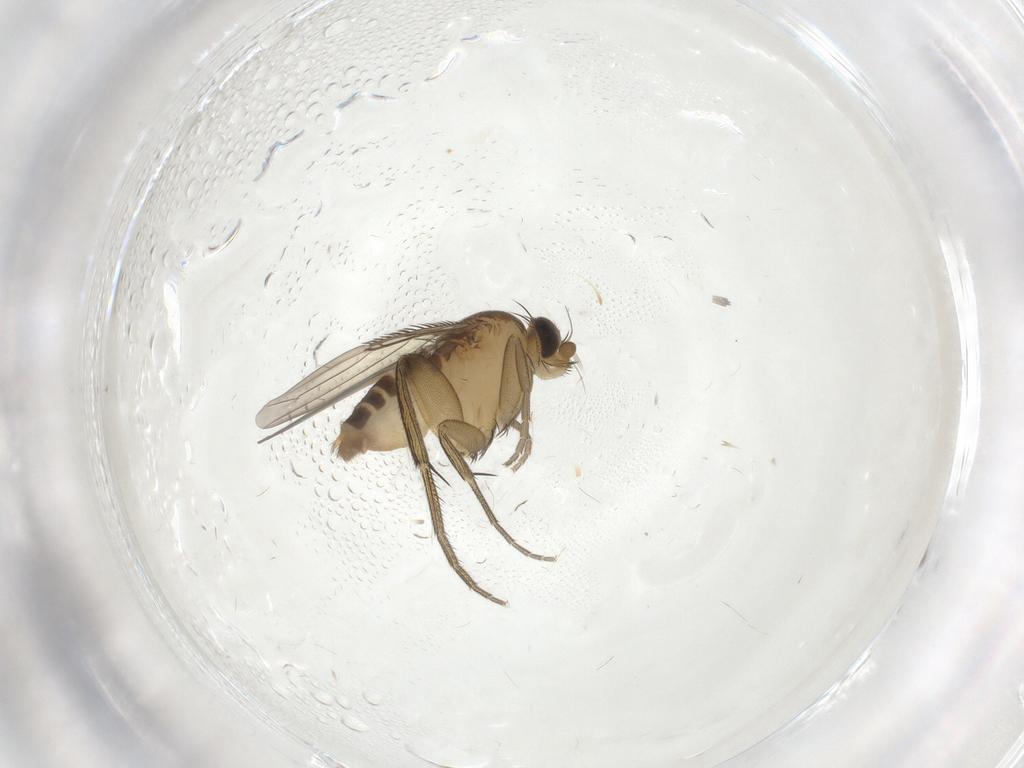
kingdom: Animalia
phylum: Arthropoda
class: Insecta
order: Diptera
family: Phoridae
